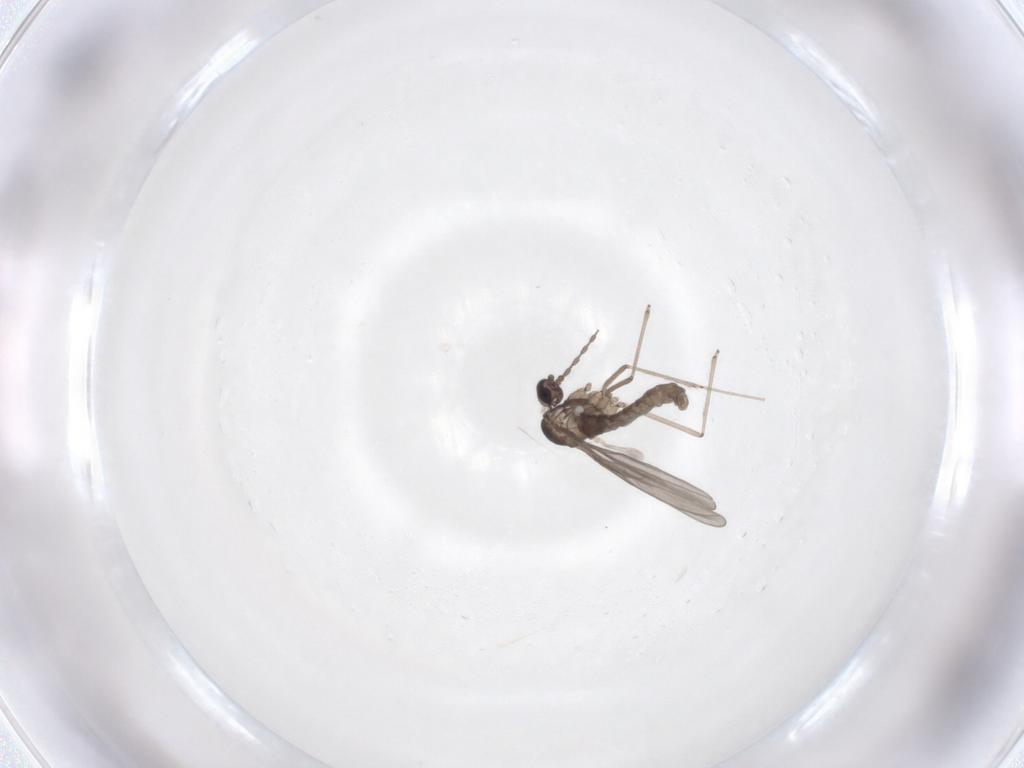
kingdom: Animalia
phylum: Arthropoda
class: Insecta
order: Diptera
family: Cecidomyiidae
